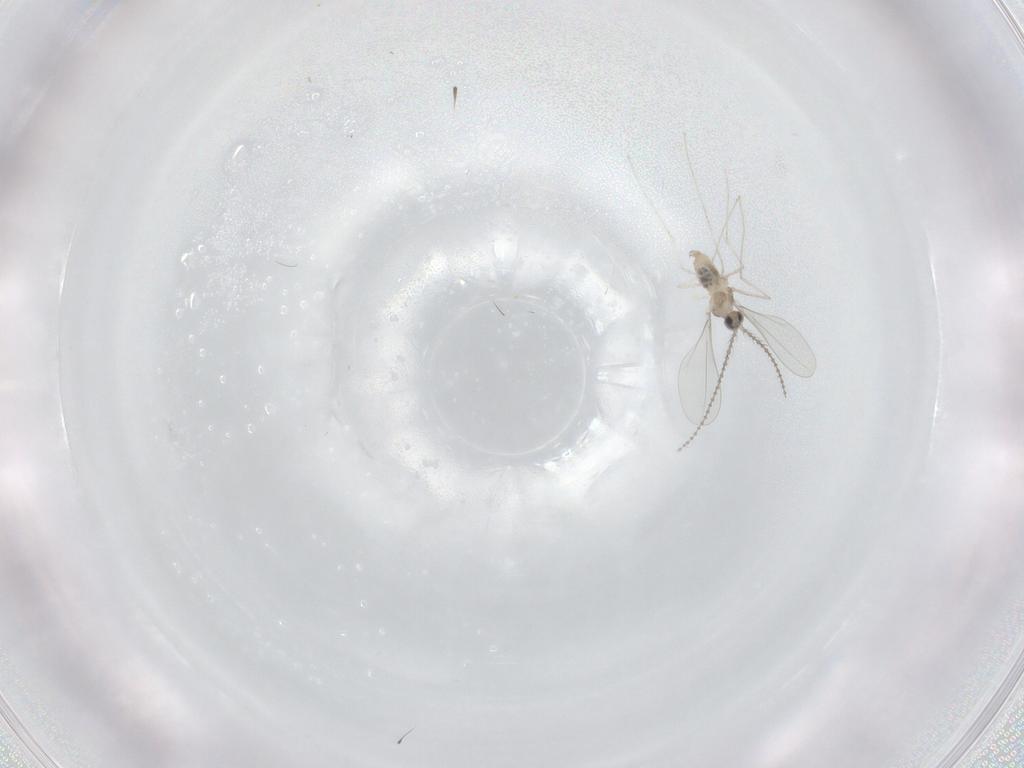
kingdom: Animalia
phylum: Arthropoda
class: Insecta
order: Diptera
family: Cecidomyiidae
